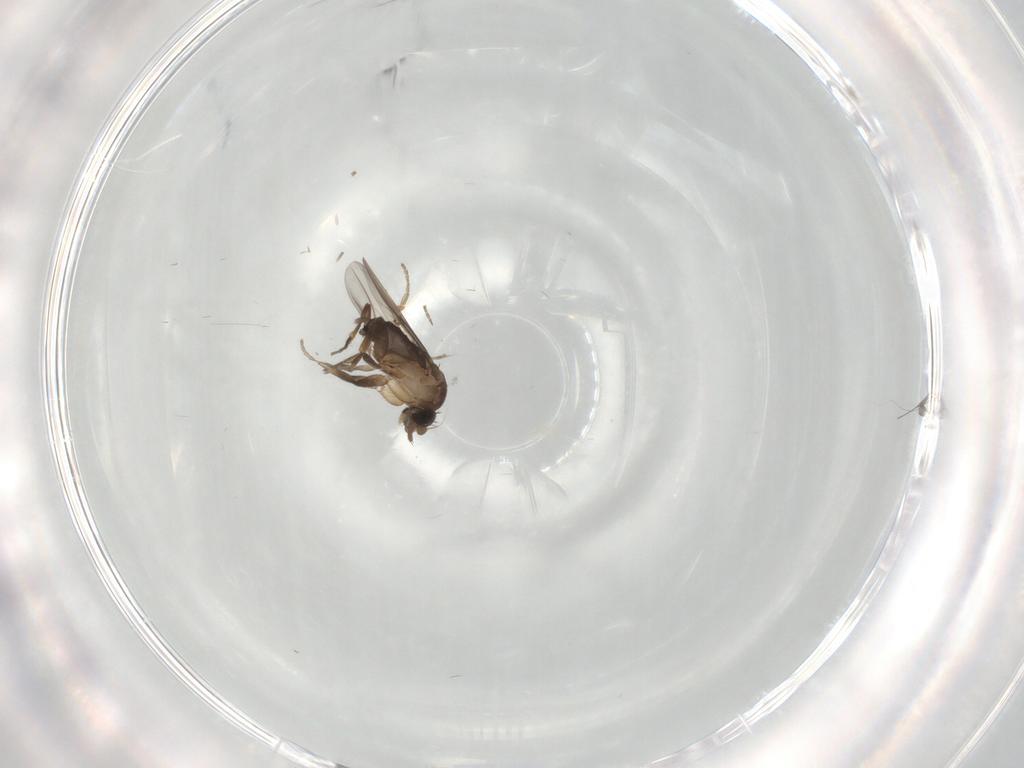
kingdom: Animalia
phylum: Arthropoda
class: Insecta
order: Diptera
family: Phoridae
